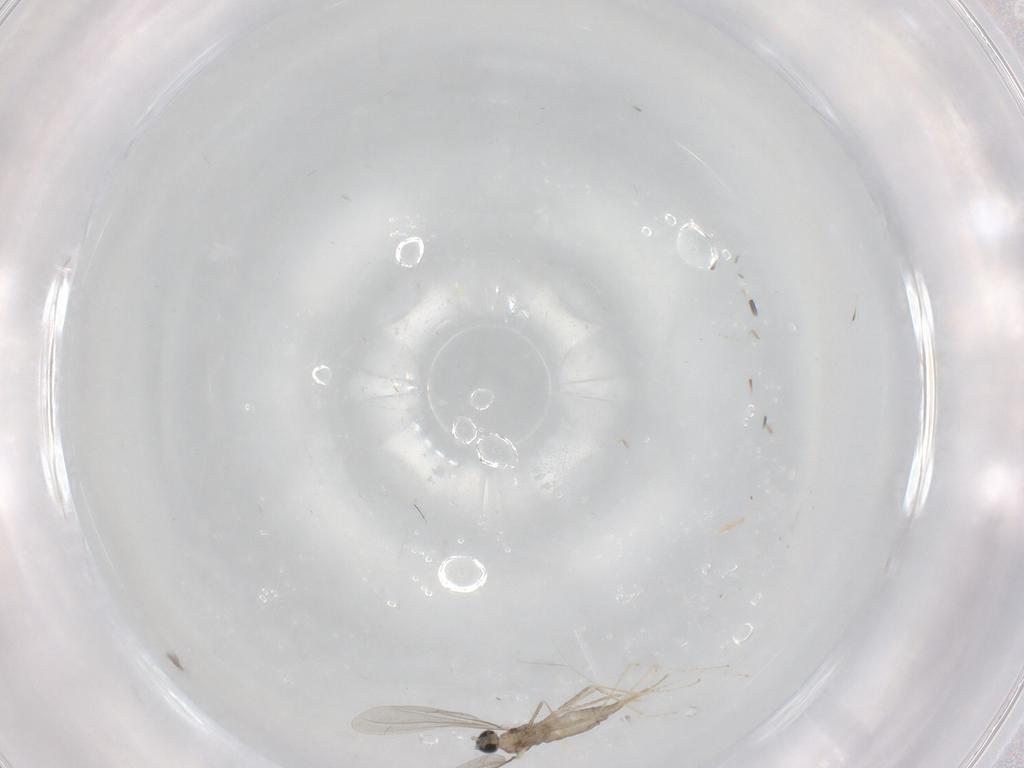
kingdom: Animalia
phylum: Arthropoda
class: Insecta
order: Diptera
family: Cecidomyiidae
